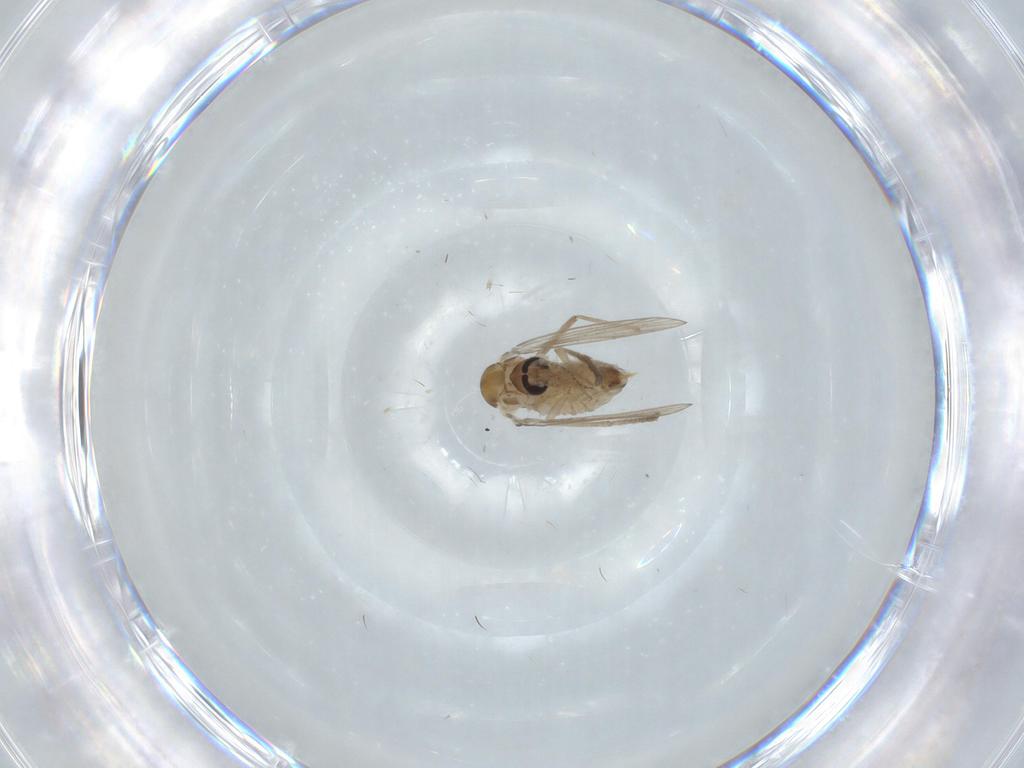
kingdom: Animalia
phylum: Arthropoda
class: Insecta
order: Diptera
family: Psychodidae
